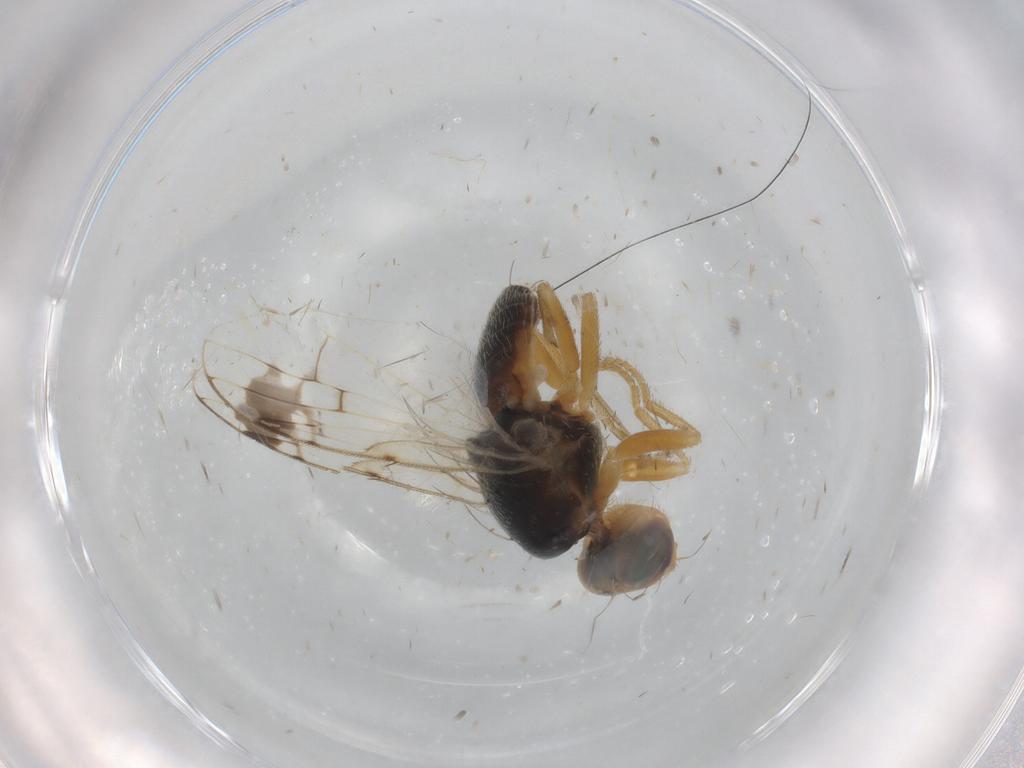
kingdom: Animalia
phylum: Arthropoda
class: Insecta
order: Diptera
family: Tephritidae
